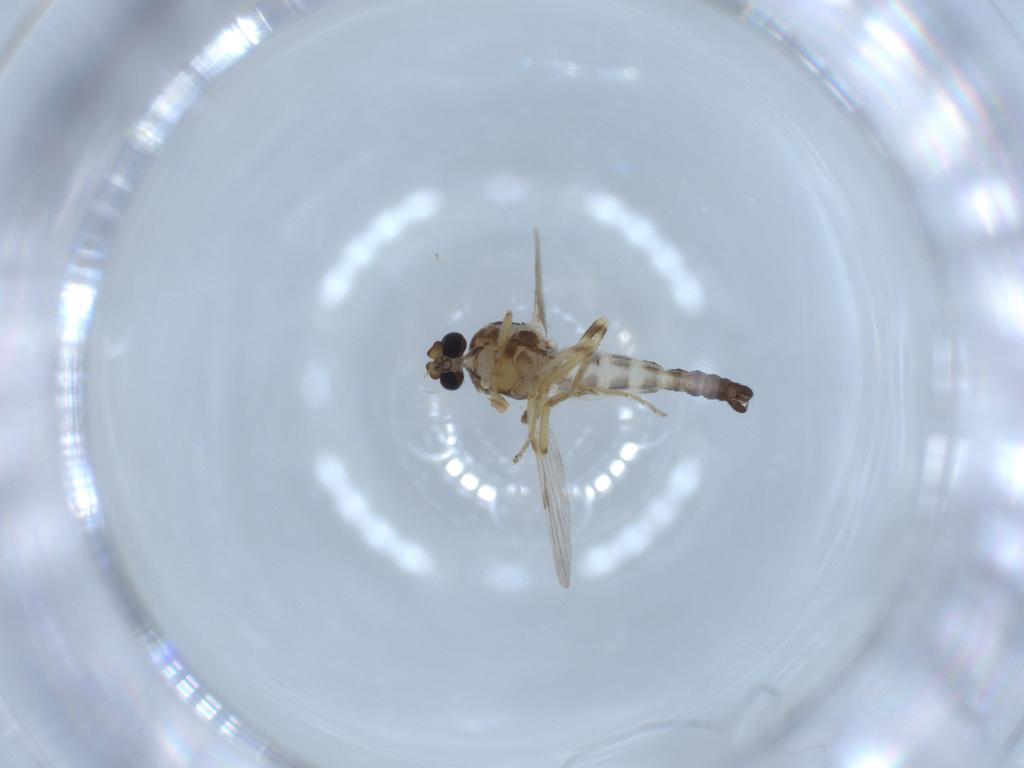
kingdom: Animalia
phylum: Arthropoda
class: Insecta
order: Diptera
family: Ceratopogonidae
